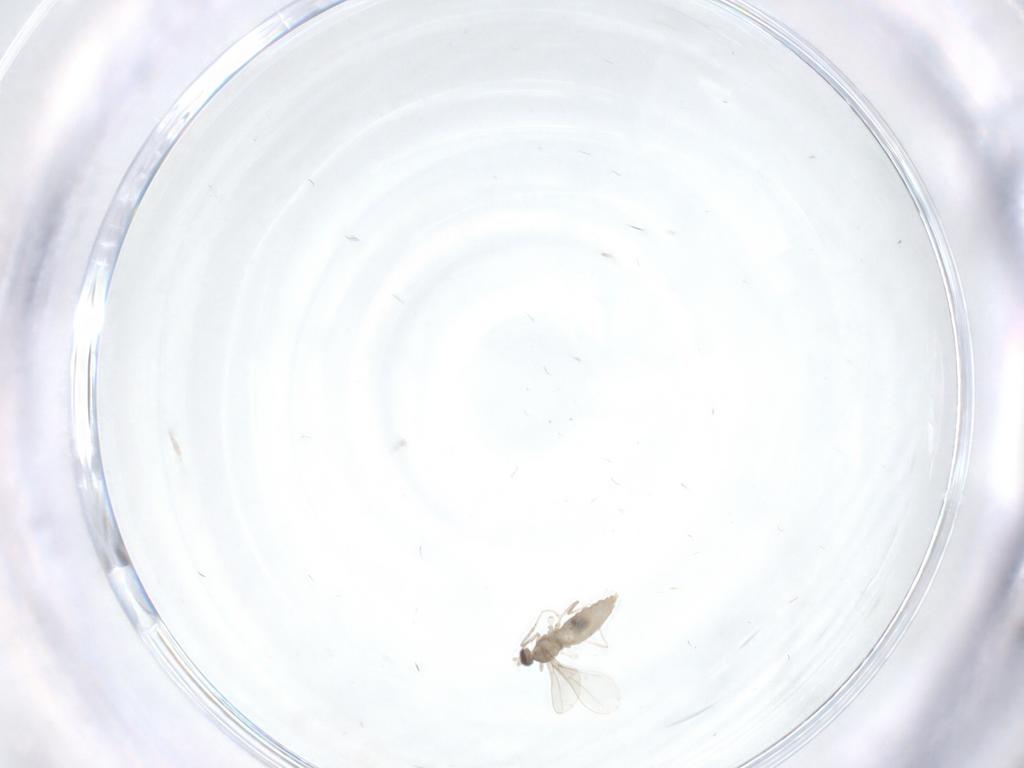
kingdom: Animalia
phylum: Arthropoda
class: Insecta
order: Diptera
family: Cecidomyiidae
